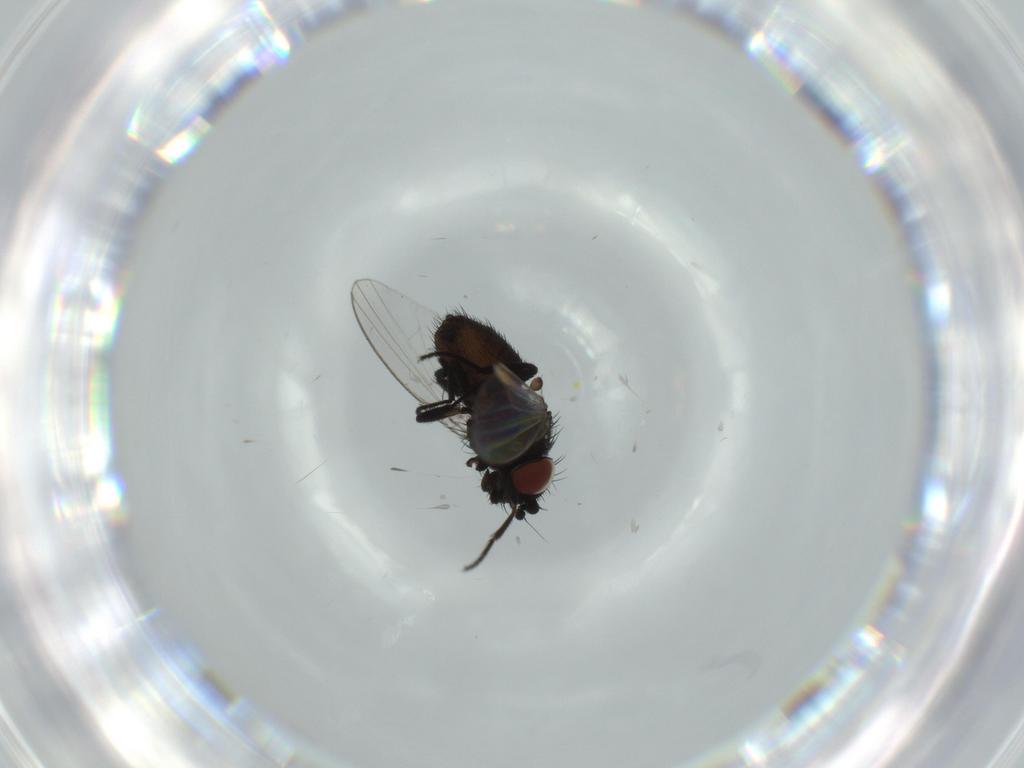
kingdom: Animalia
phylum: Arthropoda
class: Insecta
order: Diptera
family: Milichiidae
